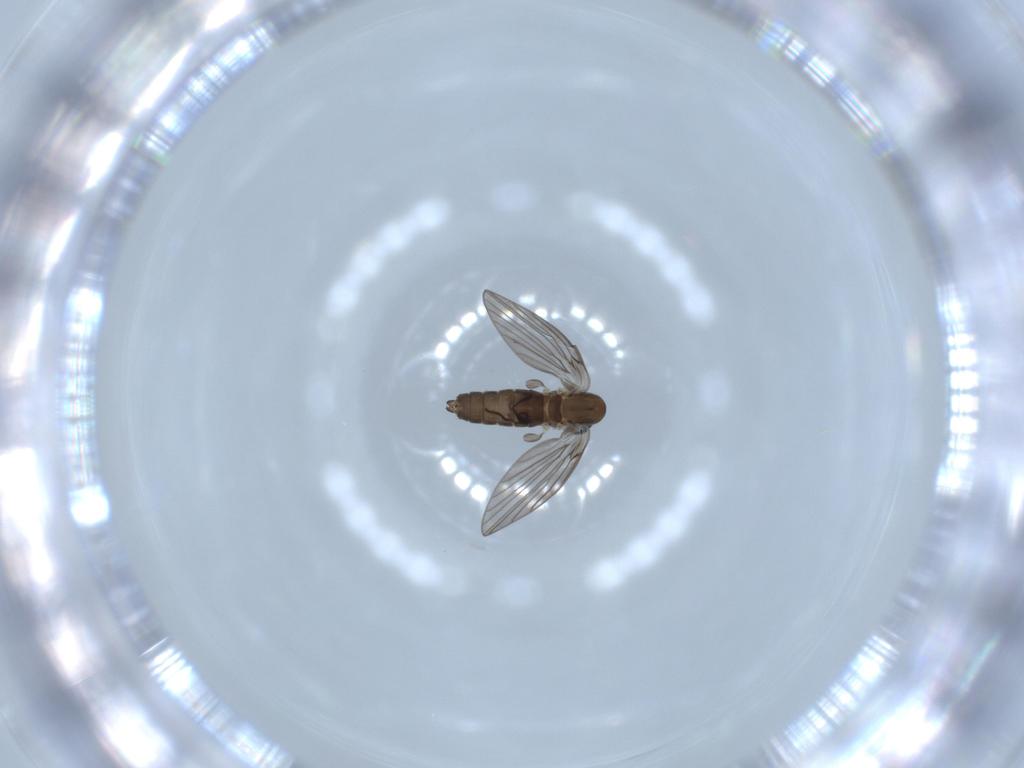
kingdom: Animalia
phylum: Arthropoda
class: Insecta
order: Diptera
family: Psychodidae
